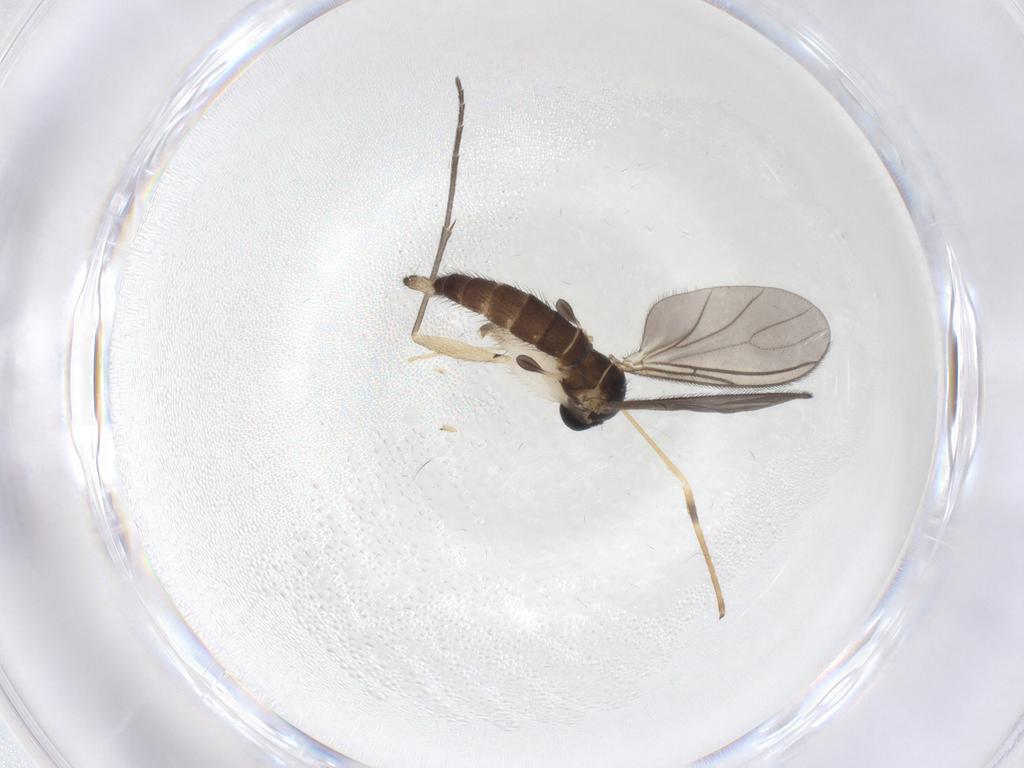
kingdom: Animalia
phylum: Arthropoda
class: Insecta
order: Diptera
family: Sciaridae
